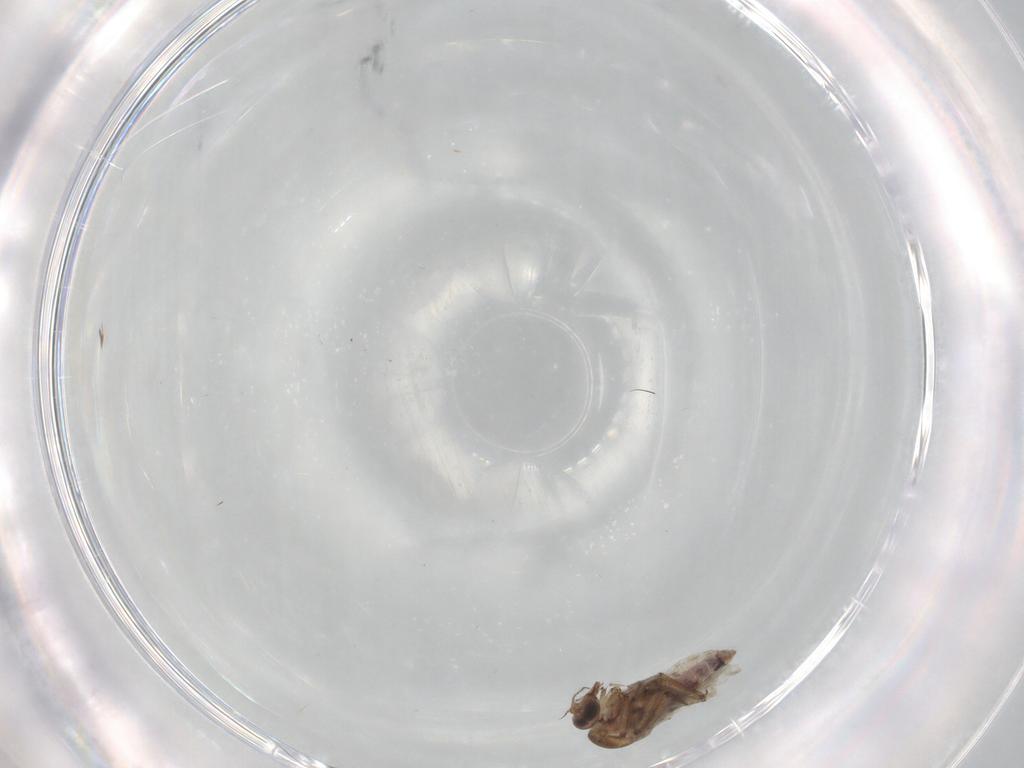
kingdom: Animalia
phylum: Arthropoda
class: Insecta
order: Diptera
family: Cecidomyiidae
